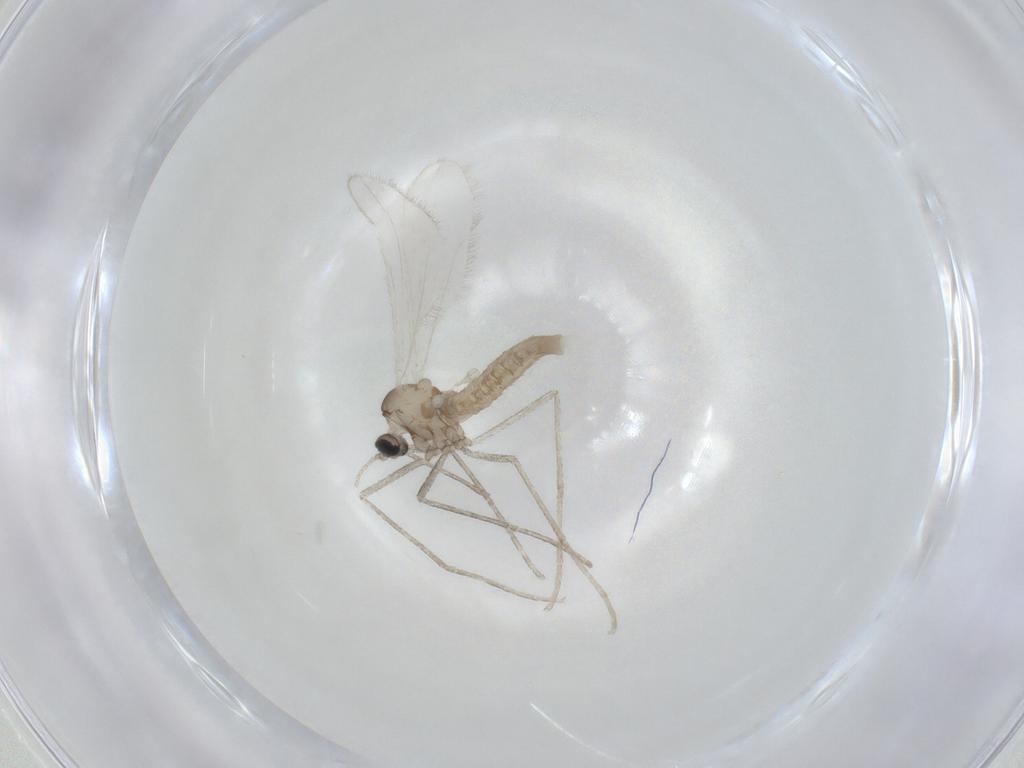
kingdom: Animalia
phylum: Arthropoda
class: Insecta
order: Diptera
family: Cecidomyiidae
